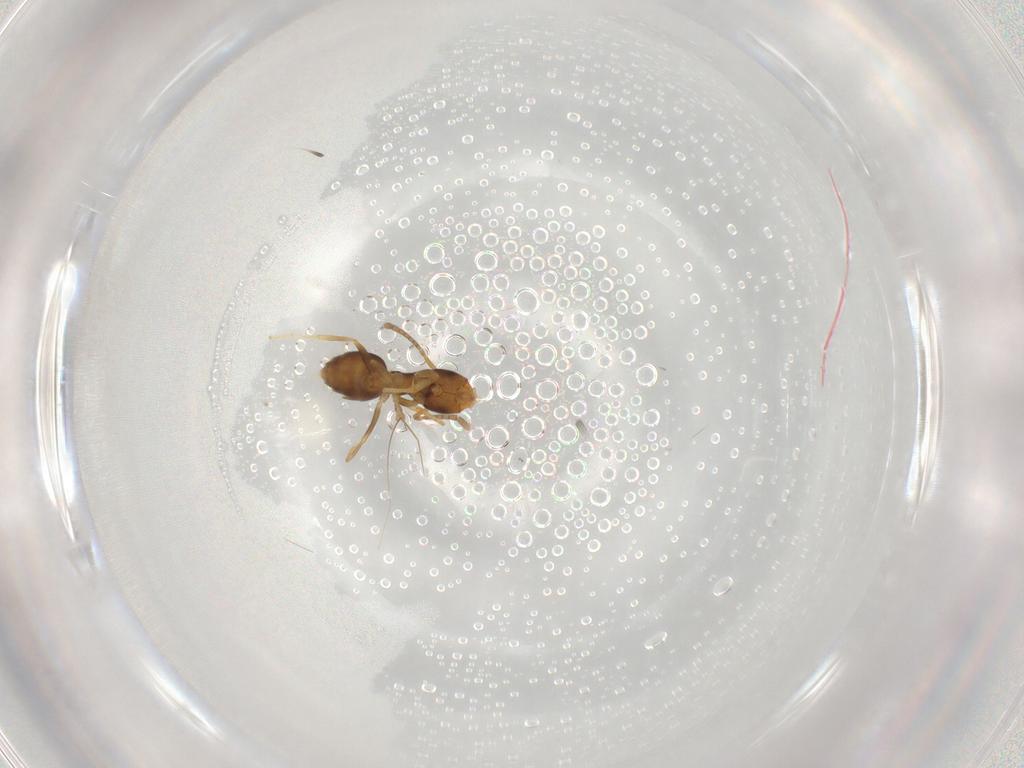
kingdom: Animalia
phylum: Arthropoda
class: Insecta
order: Hymenoptera
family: Formicidae
